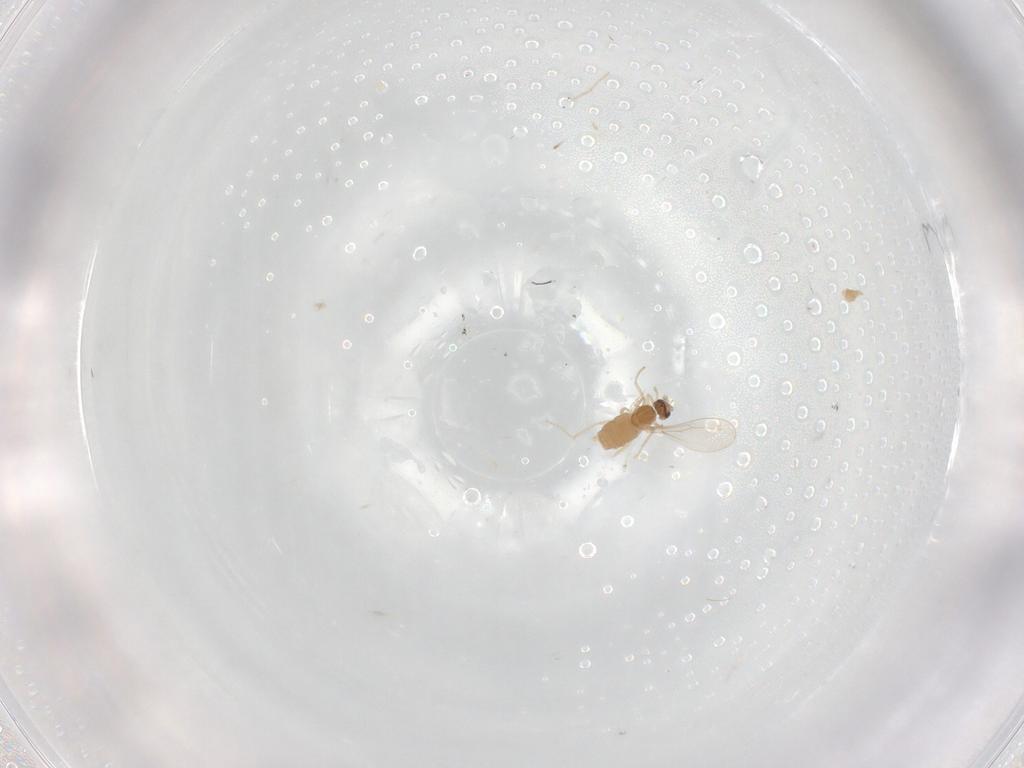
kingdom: Animalia
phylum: Arthropoda
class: Insecta
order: Diptera
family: Cecidomyiidae
